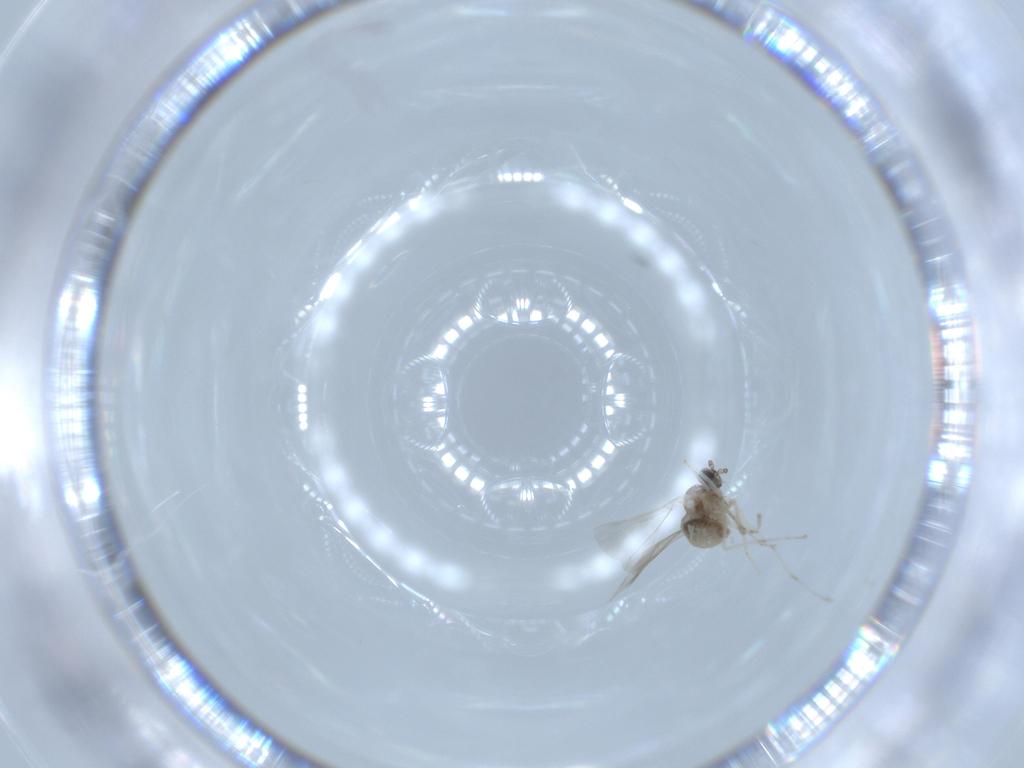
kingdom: Animalia
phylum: Arthropoda
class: Insecta
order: Diptera
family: Cecidomyiidae
